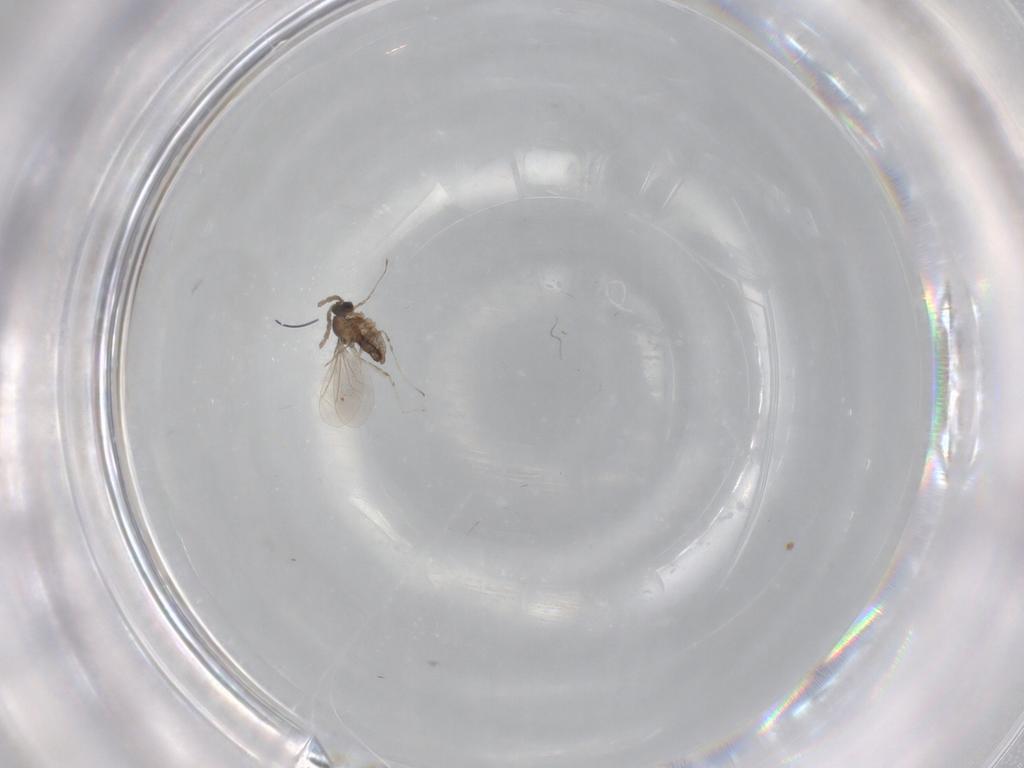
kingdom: Animalia
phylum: Arthropoda
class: Insecta
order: Diptera
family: Cecidomyiidae
